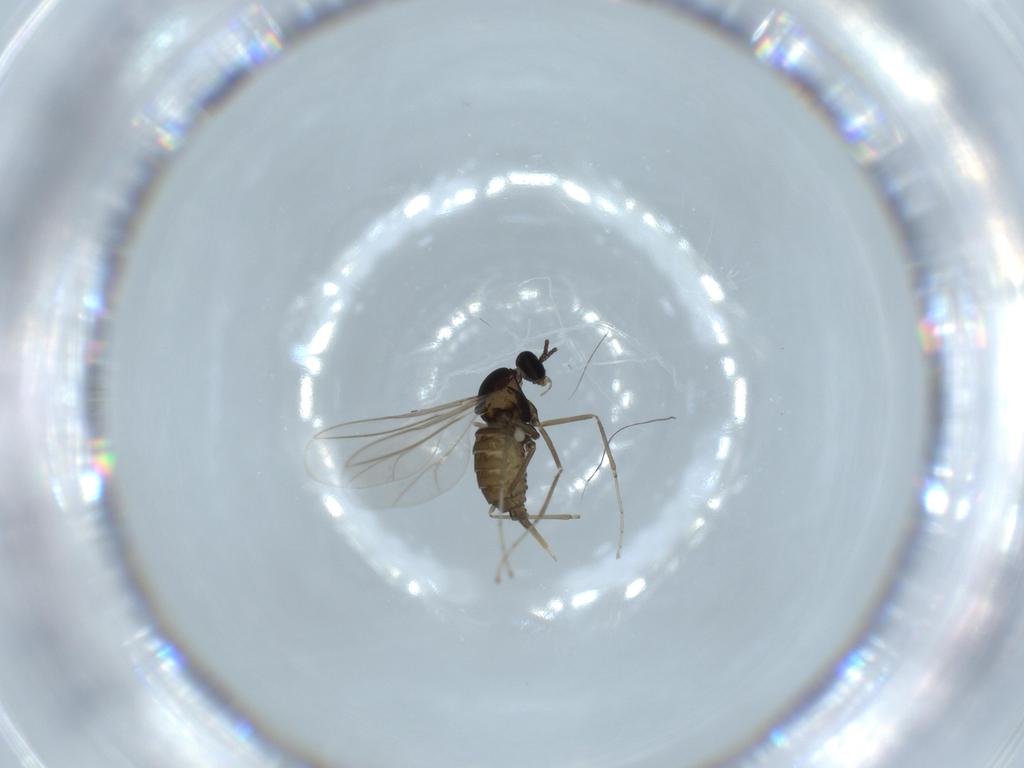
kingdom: Animalia
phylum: Arthropoda
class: Insecta
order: Diptera
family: Cecidomyiidae
